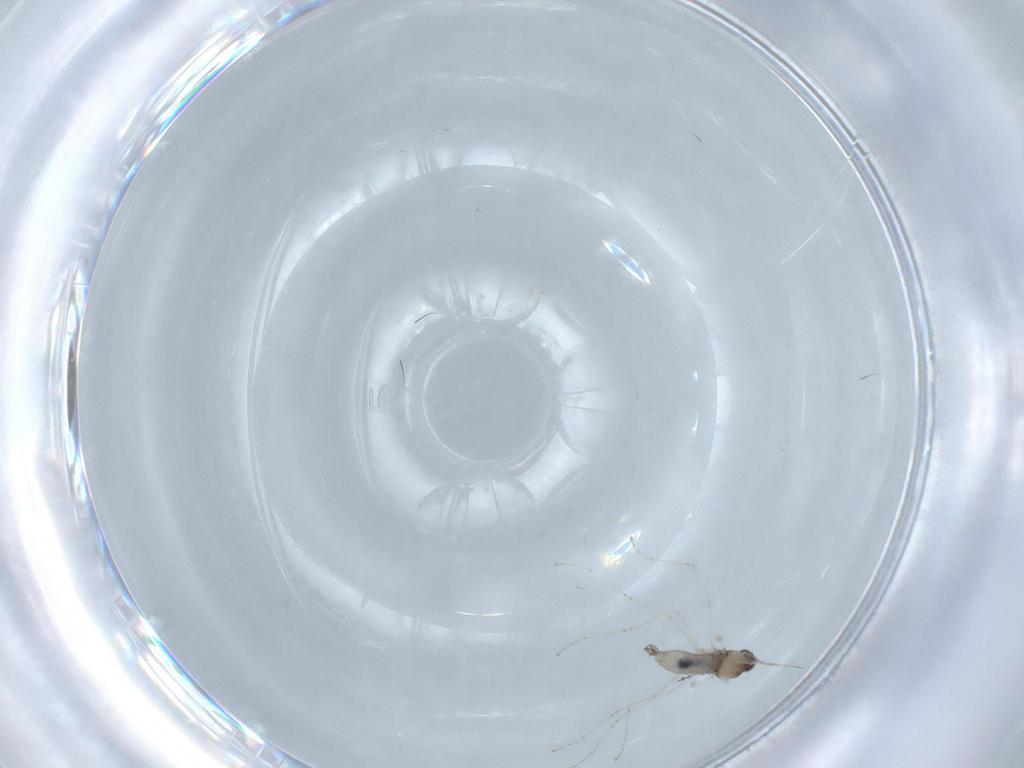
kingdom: Animalia
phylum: Arthropoda
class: Insecta
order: Diptera
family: Cecidomyiidae
